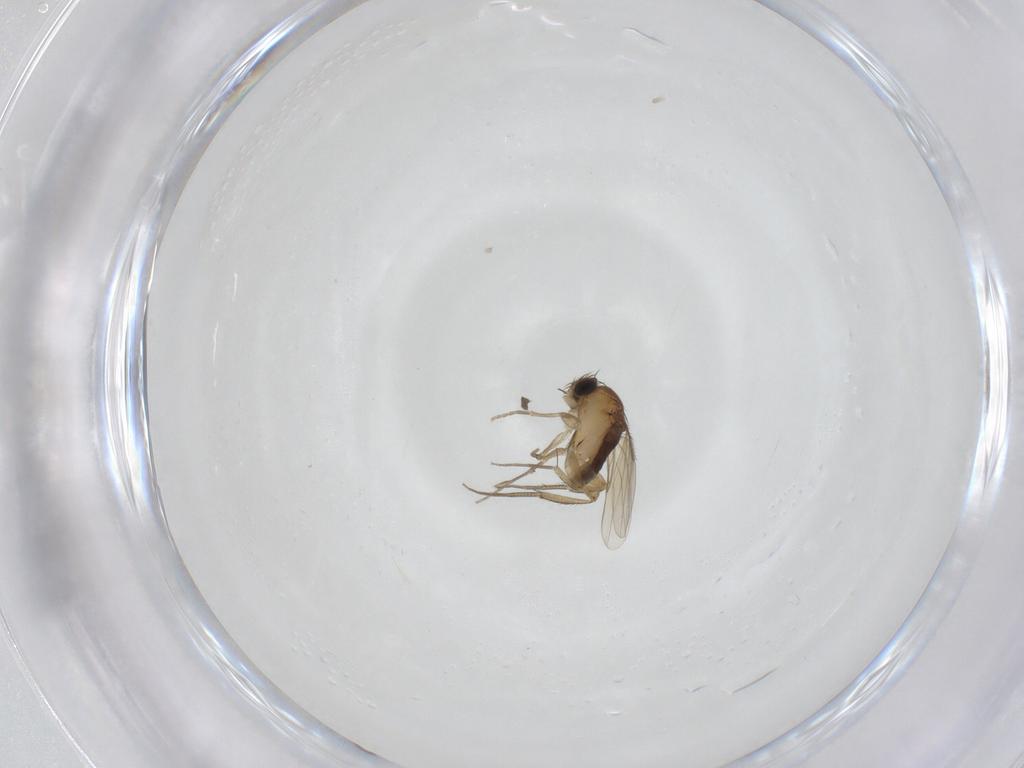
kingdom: Animalia
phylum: Arthropoda
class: Insecta
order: Diptera
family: Phoridae
